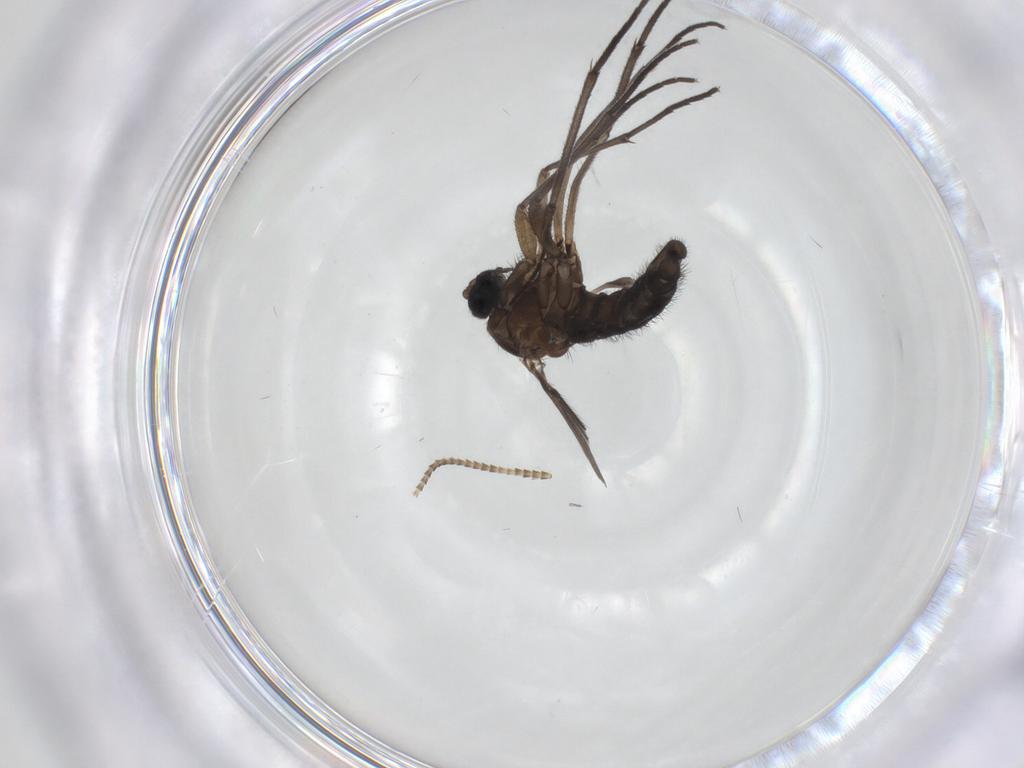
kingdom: Animalia
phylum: Arthropoda
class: Insecta
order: Diptera
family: Sciaridae
